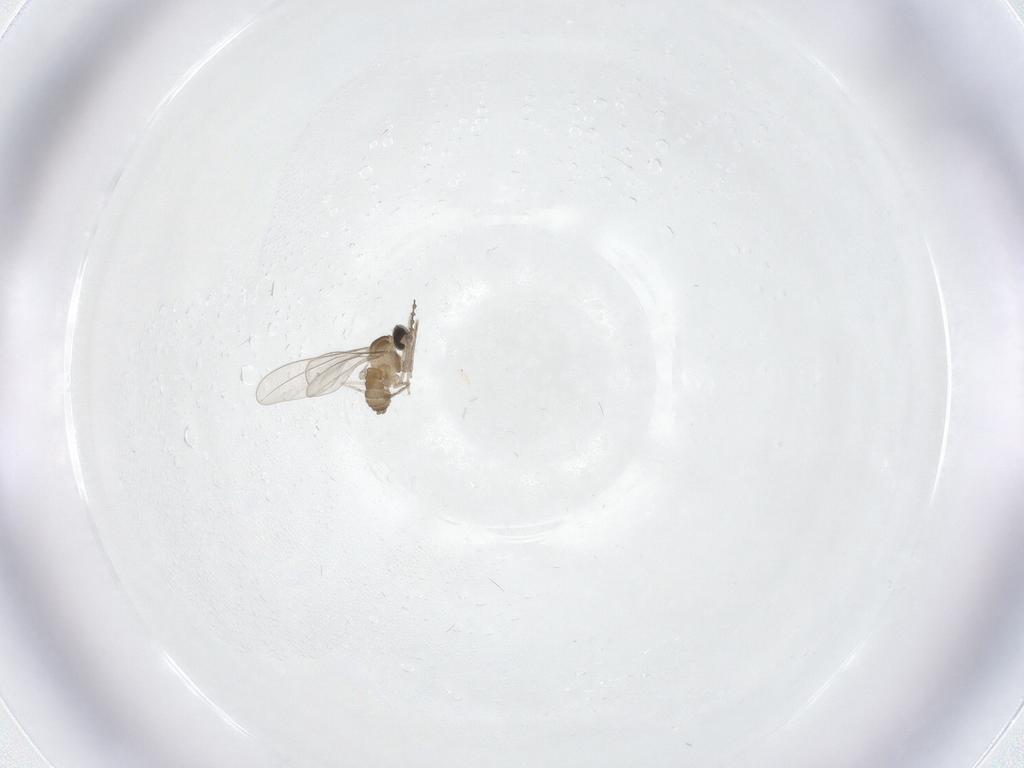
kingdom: Animalia
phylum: Arthropoda
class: Insecta
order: Diptera
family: Cecidomyiidae
